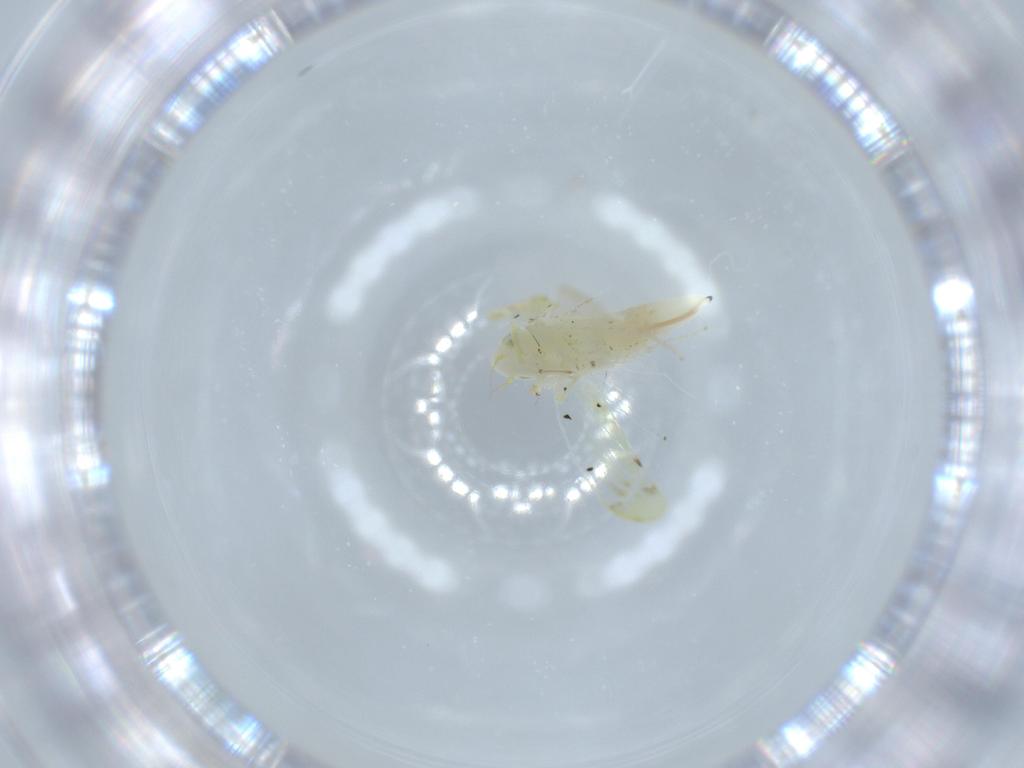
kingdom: Animalia
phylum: Arthropoda
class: Insecta
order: Hemiptera
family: Cicadellidae
